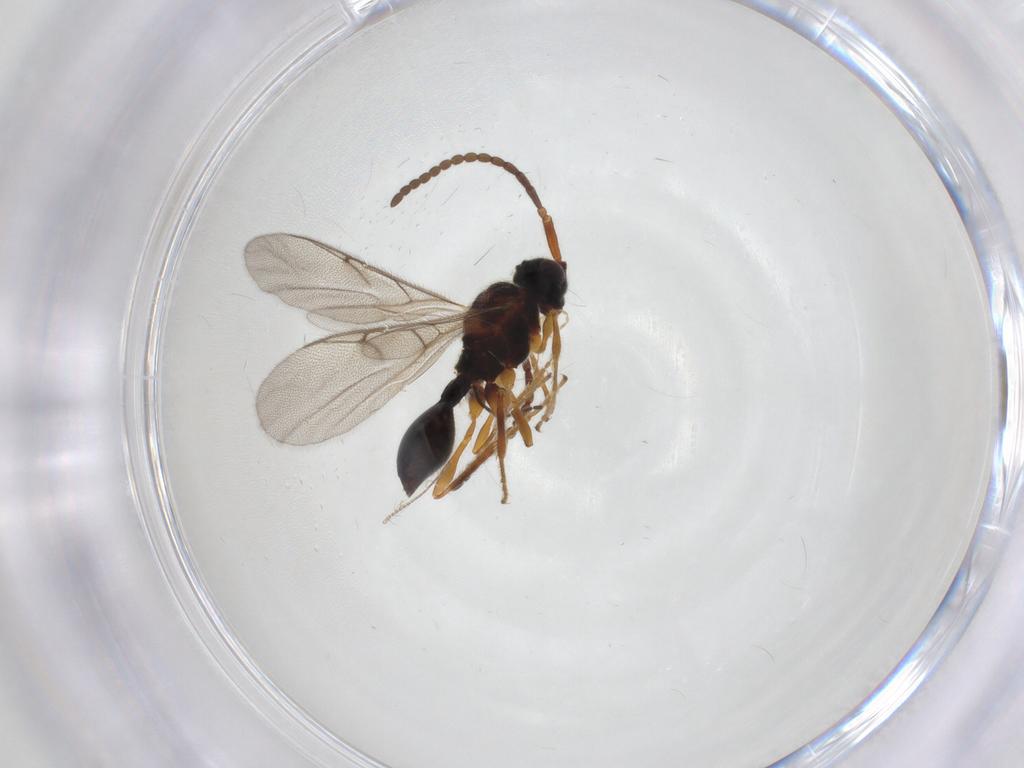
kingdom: Animalia
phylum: Arthropoda
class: Insecta
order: Hymenoptera
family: Diapriidae
